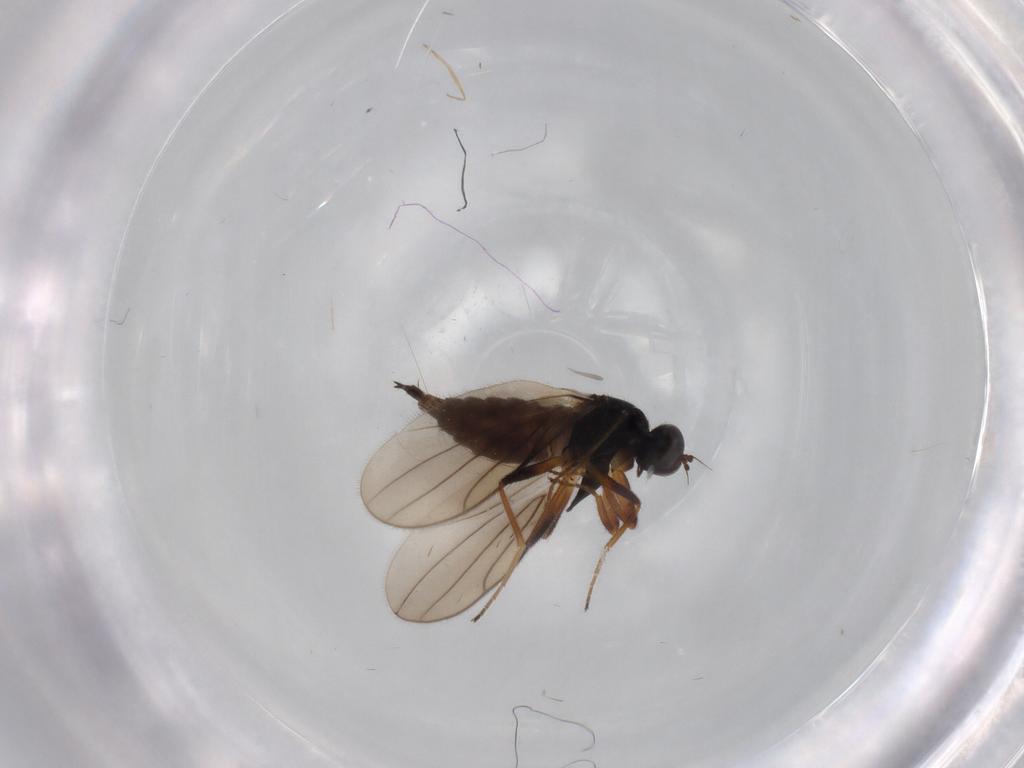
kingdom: Animalia
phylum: Arthropoda
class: Insecta
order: Diptera
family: Hybotidae
